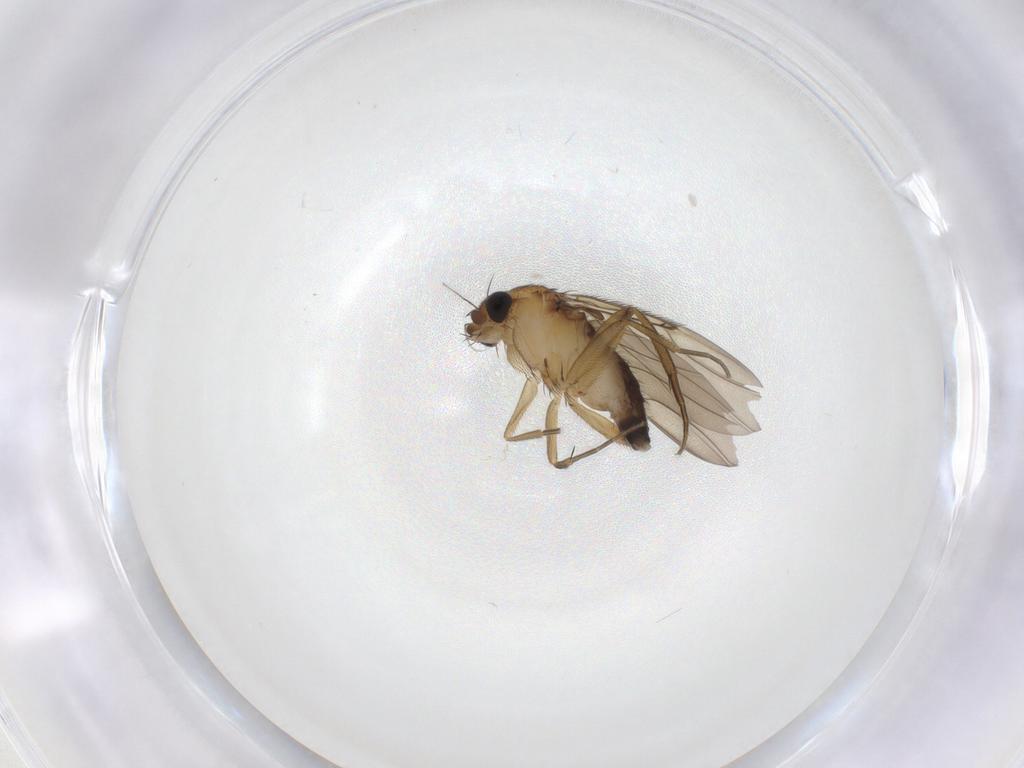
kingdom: Animalia
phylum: Arthropoda
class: Insecta
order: Diptera
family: Phoridae
